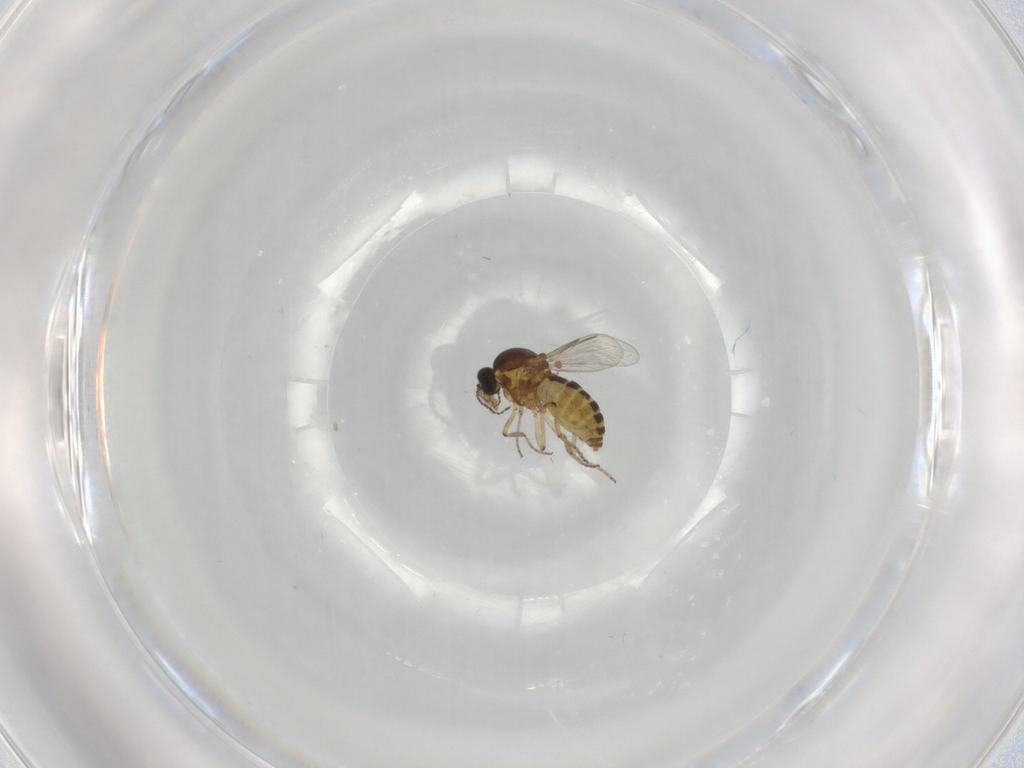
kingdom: Animalia
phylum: Arthropoda
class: Insecta
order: Diptera
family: Ceratopogonidae
